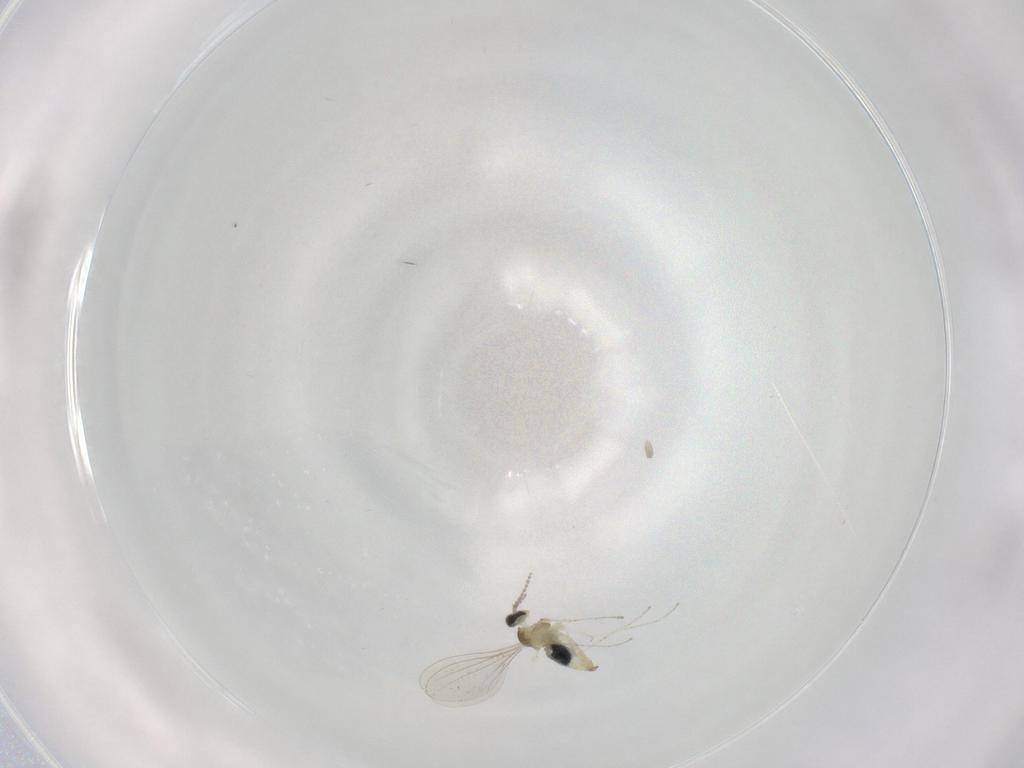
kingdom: Animalia
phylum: Arthropoda
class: Insecta
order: Diptera
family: Cecidomyiidae
